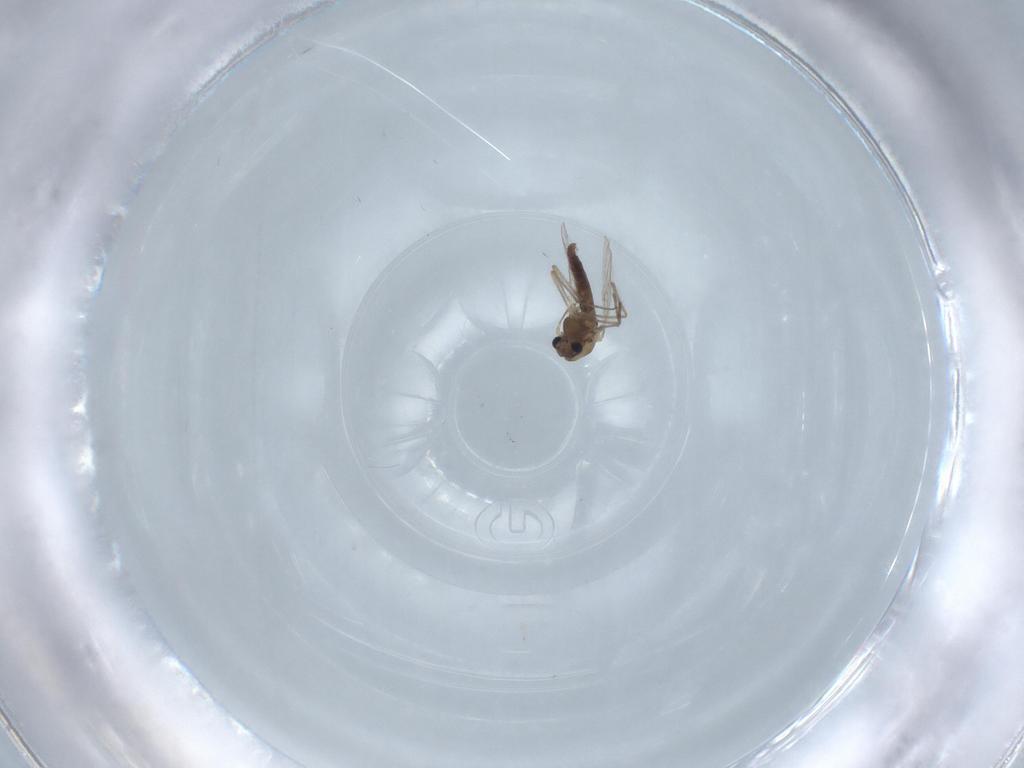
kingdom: Animalia
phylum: Arthropoda
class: Insecta
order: Diptera
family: Chironomidae
